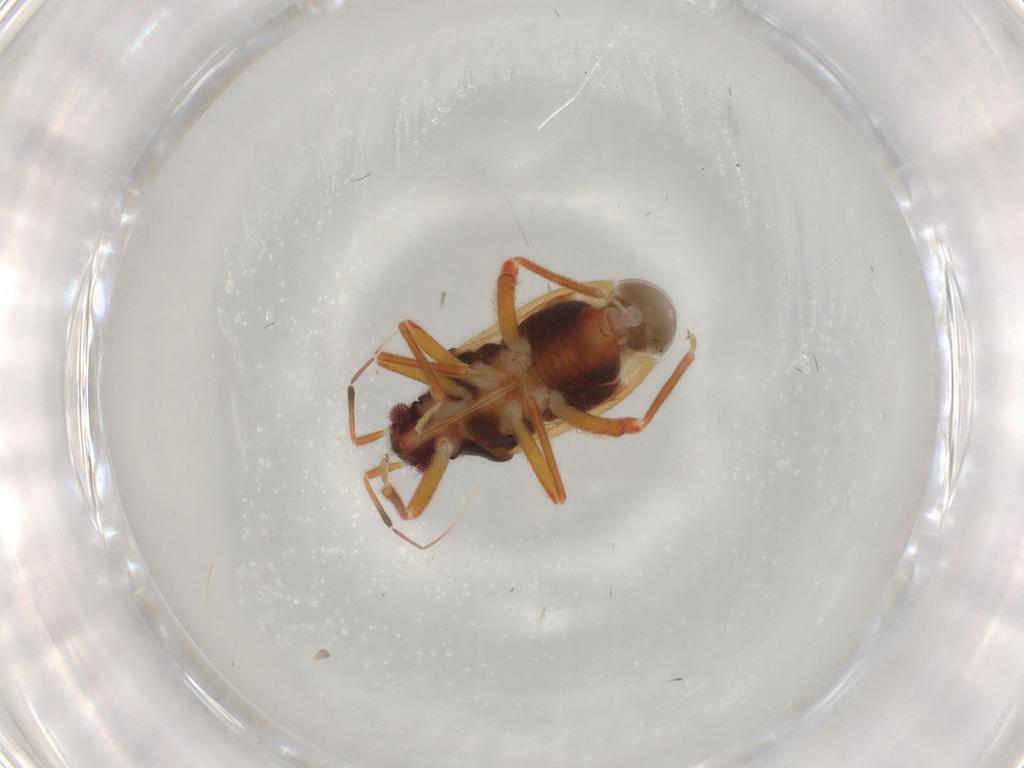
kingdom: Animalia
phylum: Arthropoda
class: Insecta
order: Hemiptera
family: Miridae
